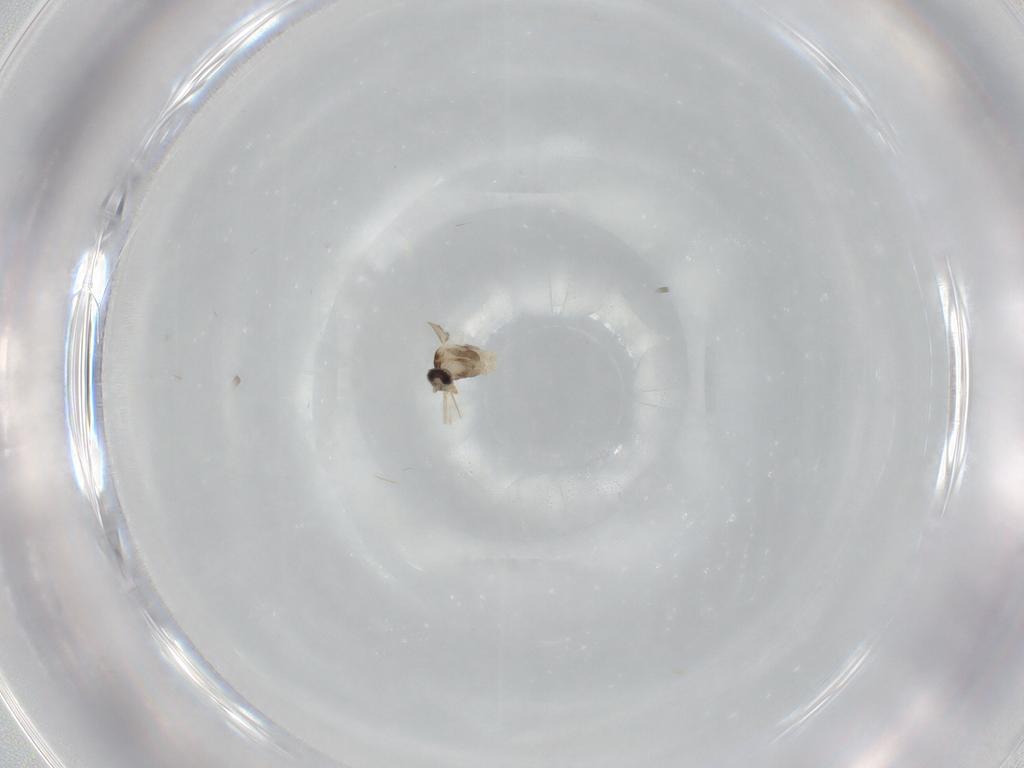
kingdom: Animalia
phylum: Arthropoda
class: Insecta
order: Diptera
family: Cecidomyiidae
